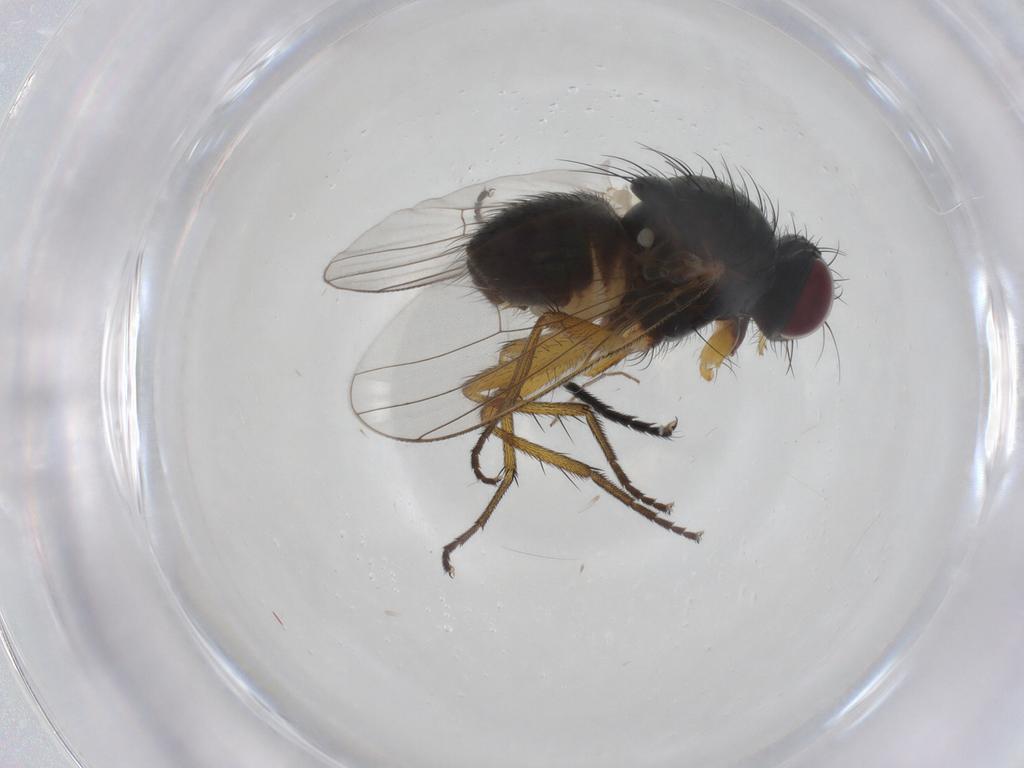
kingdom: Animalia
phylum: Arthropoda
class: Insecta
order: Diptera
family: Muscidae
